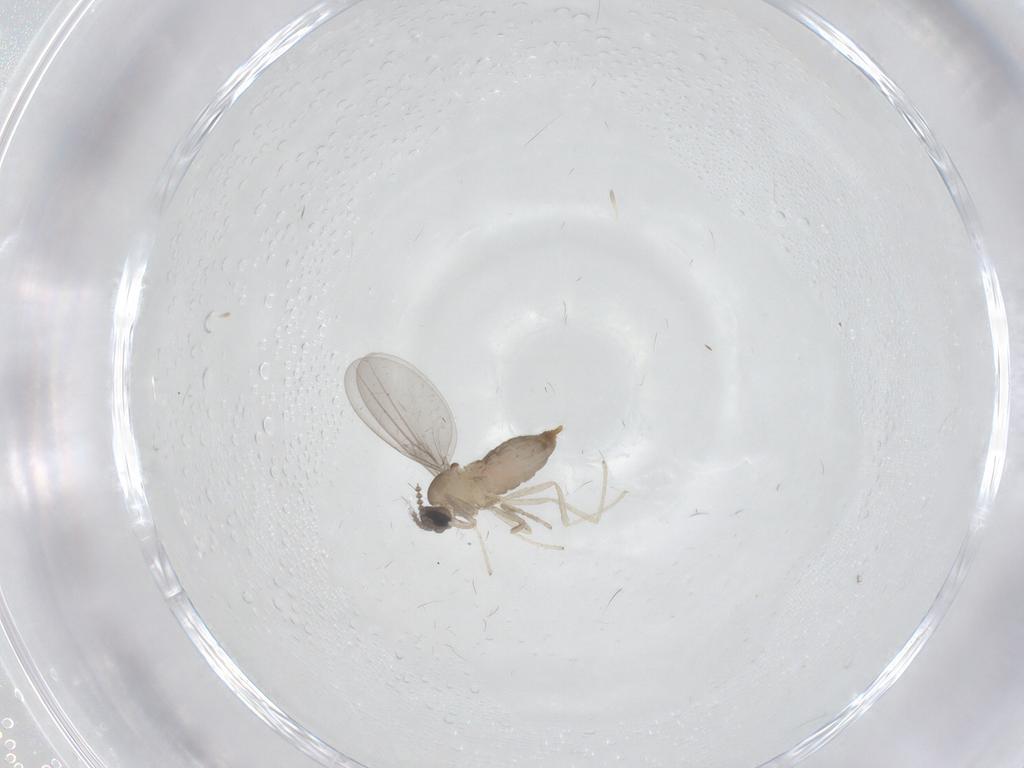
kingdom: Animalia
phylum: Arthropoda
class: Insecta
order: Diptera
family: Cecidomyiidae
